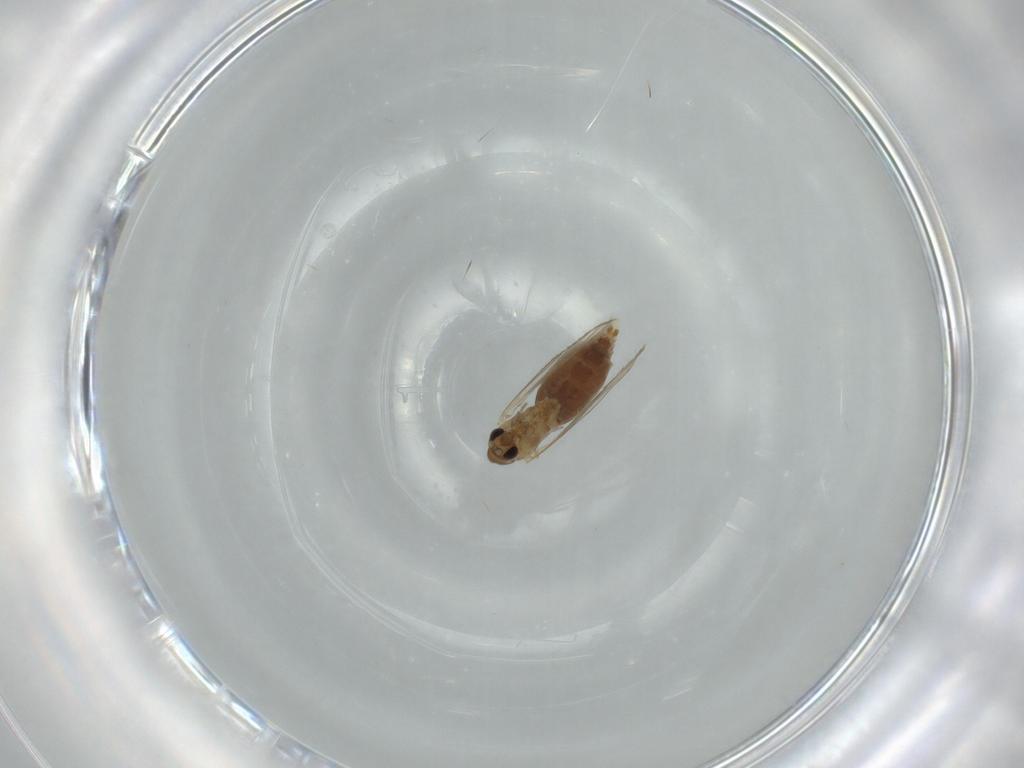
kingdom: Animalia
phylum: Arthropoda
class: Insecta
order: Diptera
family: Psychodidae
